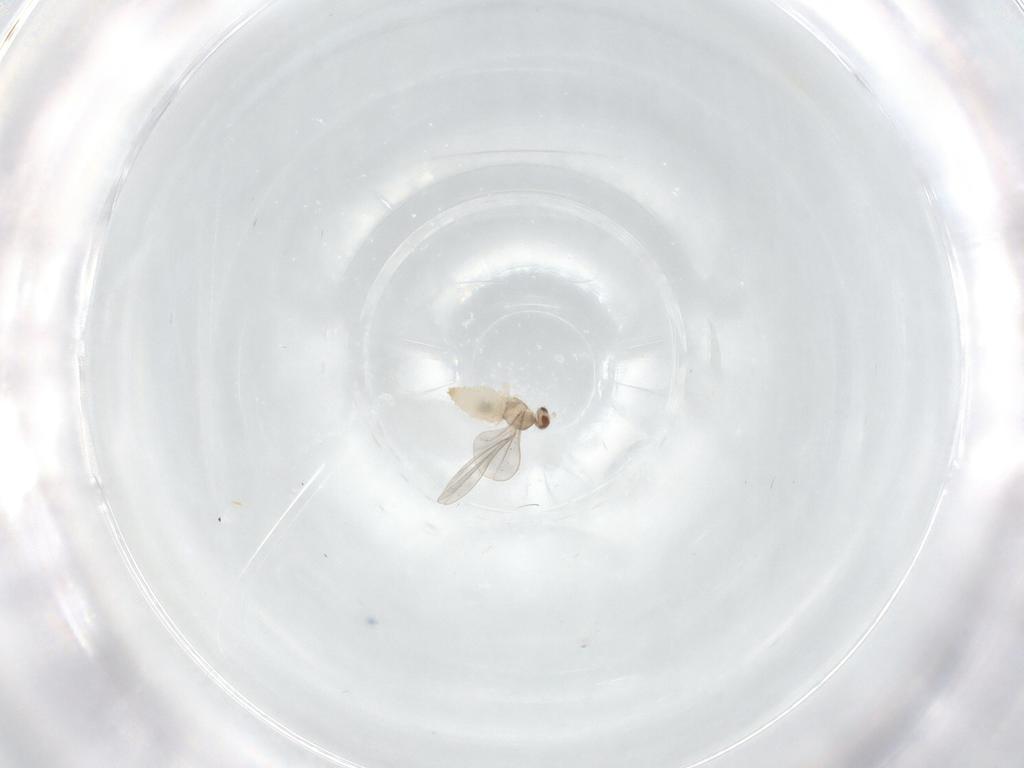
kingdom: Animalia
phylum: Arthropoda
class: Insecta
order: Diptera
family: Cecidomyiidae
